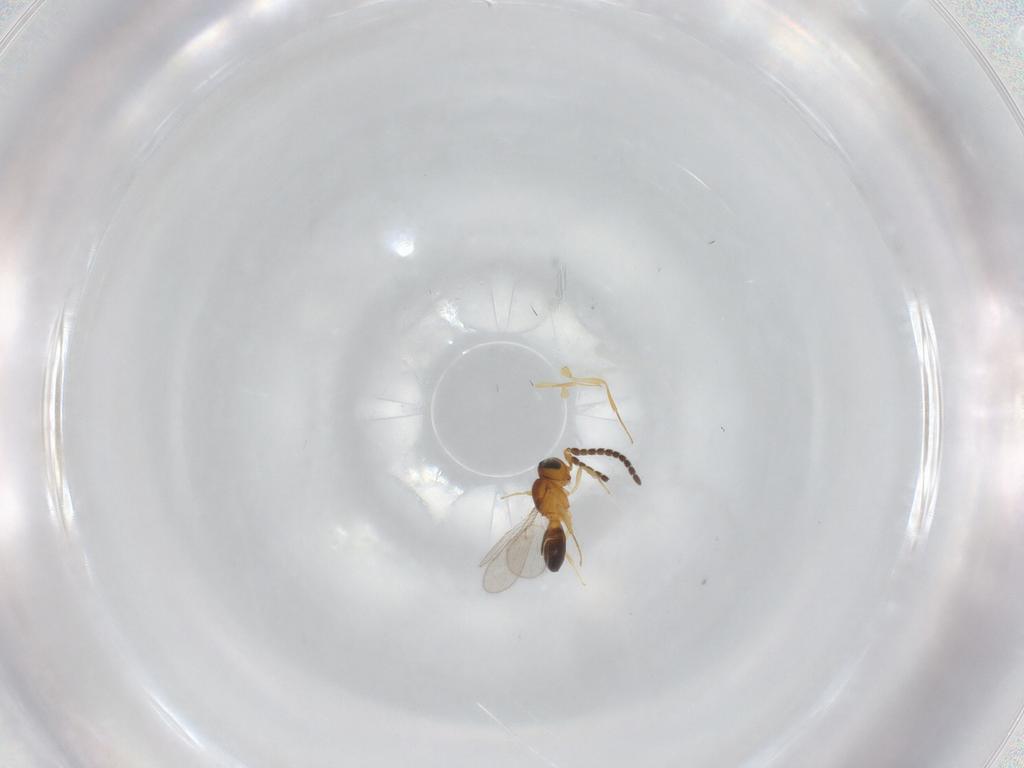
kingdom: Animalia
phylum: Arthropoda
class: Insecta
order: Hymenoptera
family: Scelionidae
